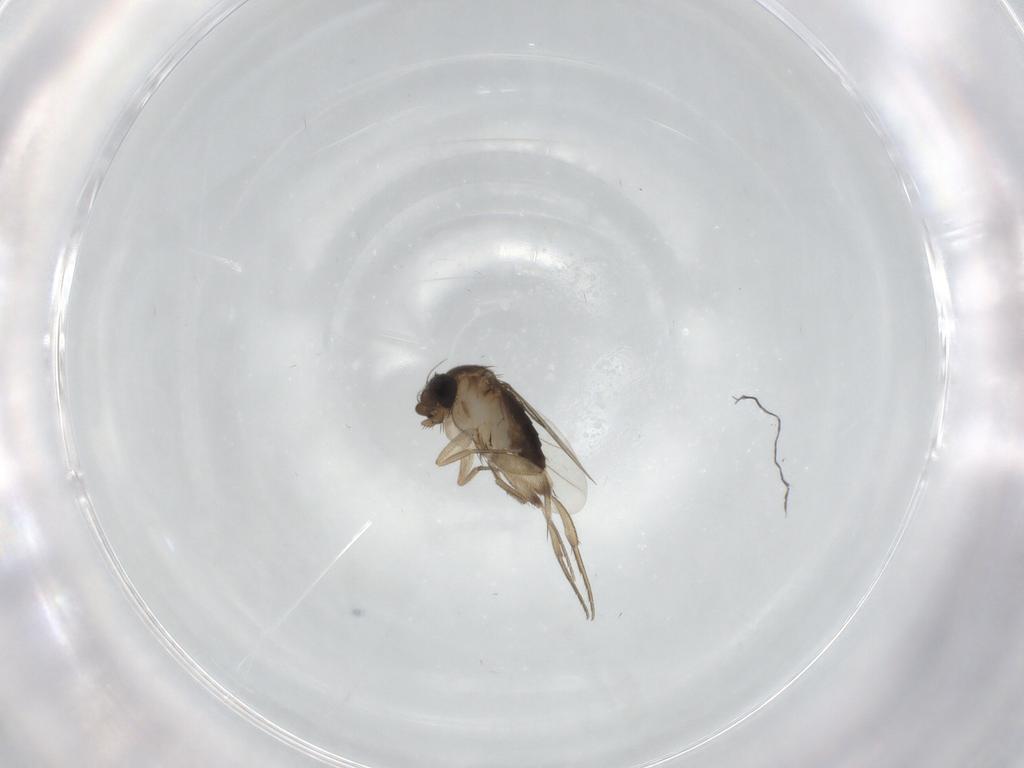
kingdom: Animalia
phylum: Arthropoda
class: Insecta
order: Diptera
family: Phoridae
